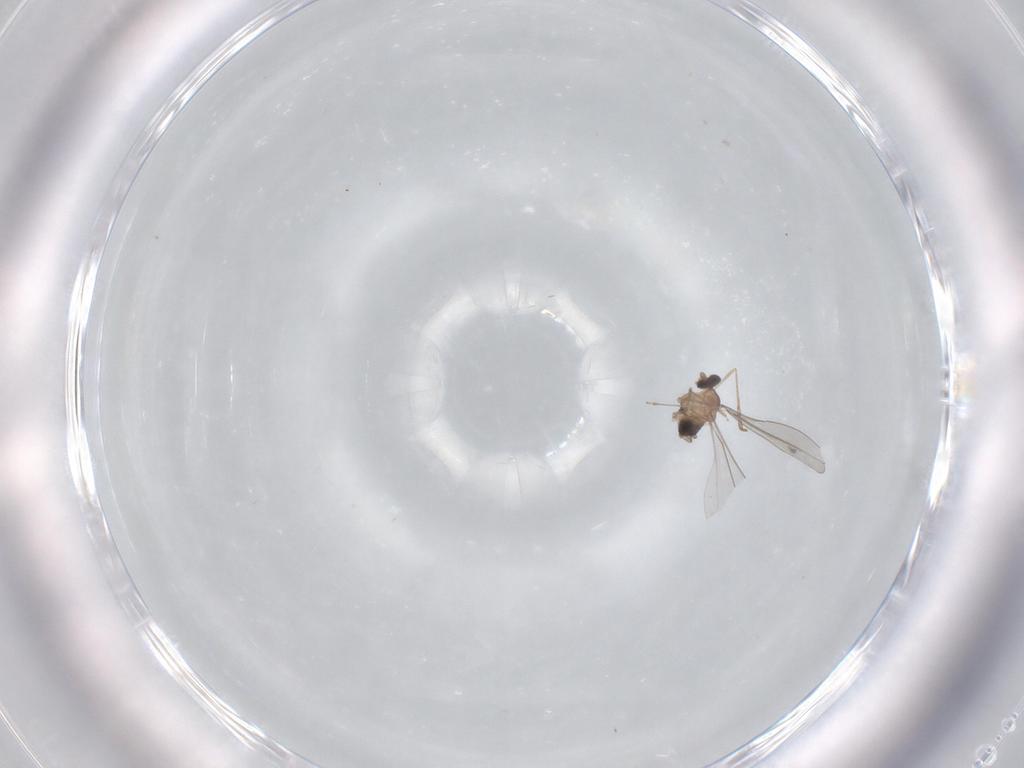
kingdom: Animalia
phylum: Arthropoda
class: Insecta
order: Diptera
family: Cecidomyiidae
